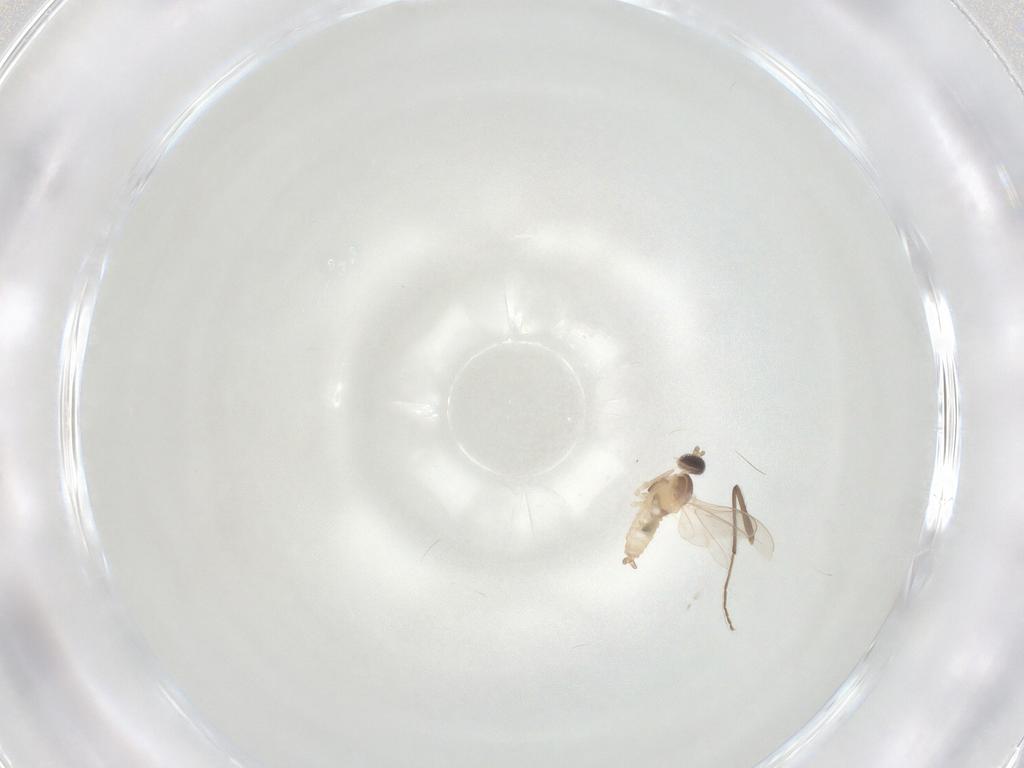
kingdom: Animalia
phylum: Arthropoda
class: Insecta
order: Diptera
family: Cecidomyiidae
